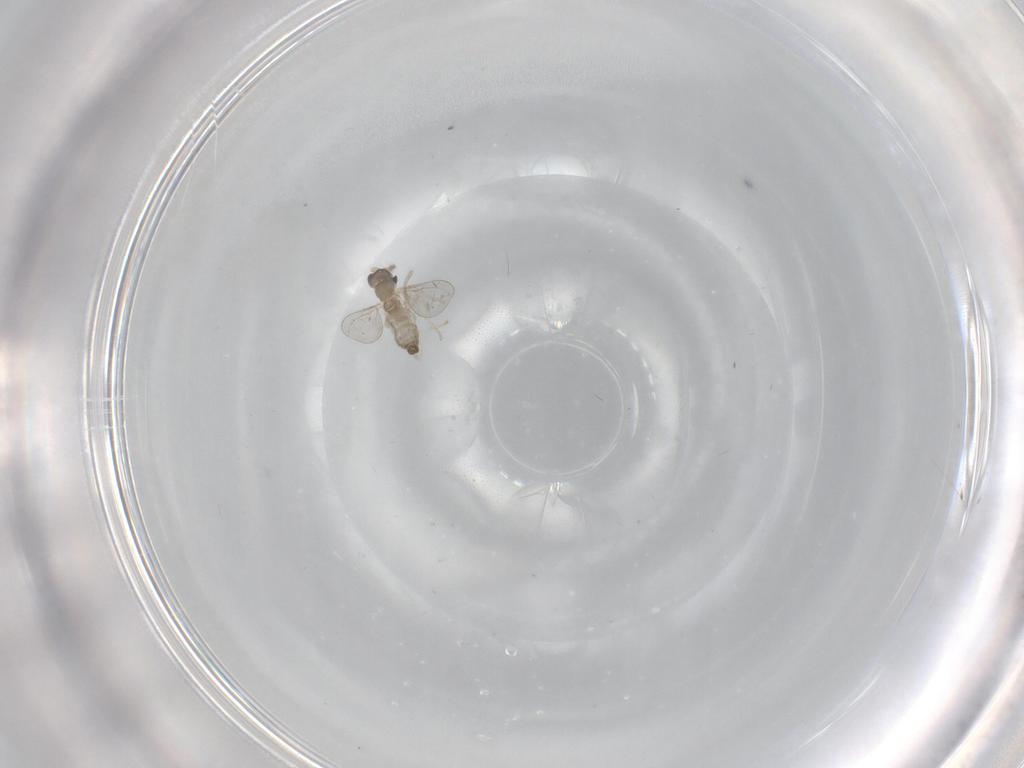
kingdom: Animalia
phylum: Arthropoda
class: Insecta
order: Diptera
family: Cecidomyiidae
